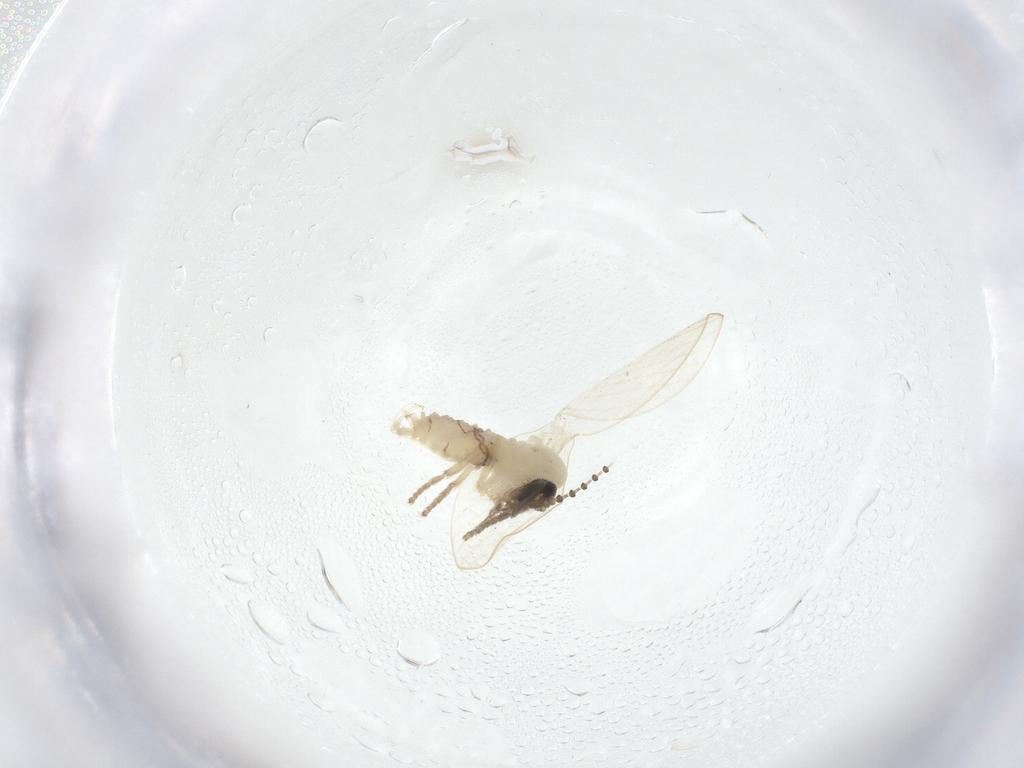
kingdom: Animalia
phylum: Arthropoda
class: Insecta
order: Diptera
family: Psychodidae
